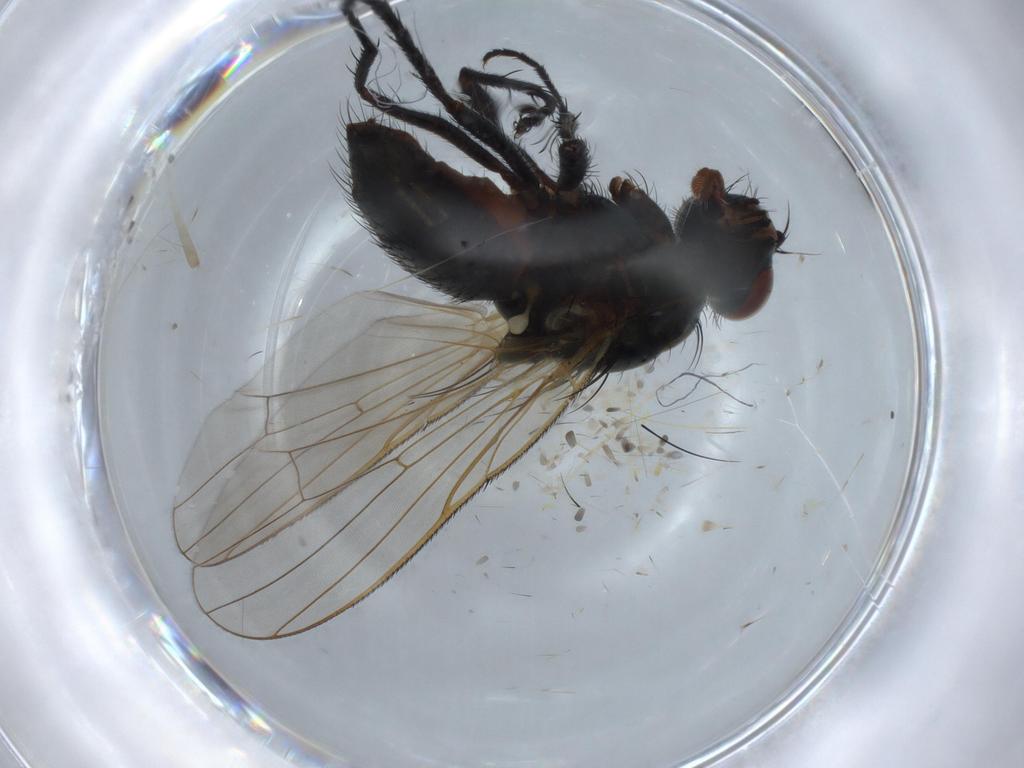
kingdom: Animalia
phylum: Arthropoda
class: Insecta
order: Diptera
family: Anthomyiidae
